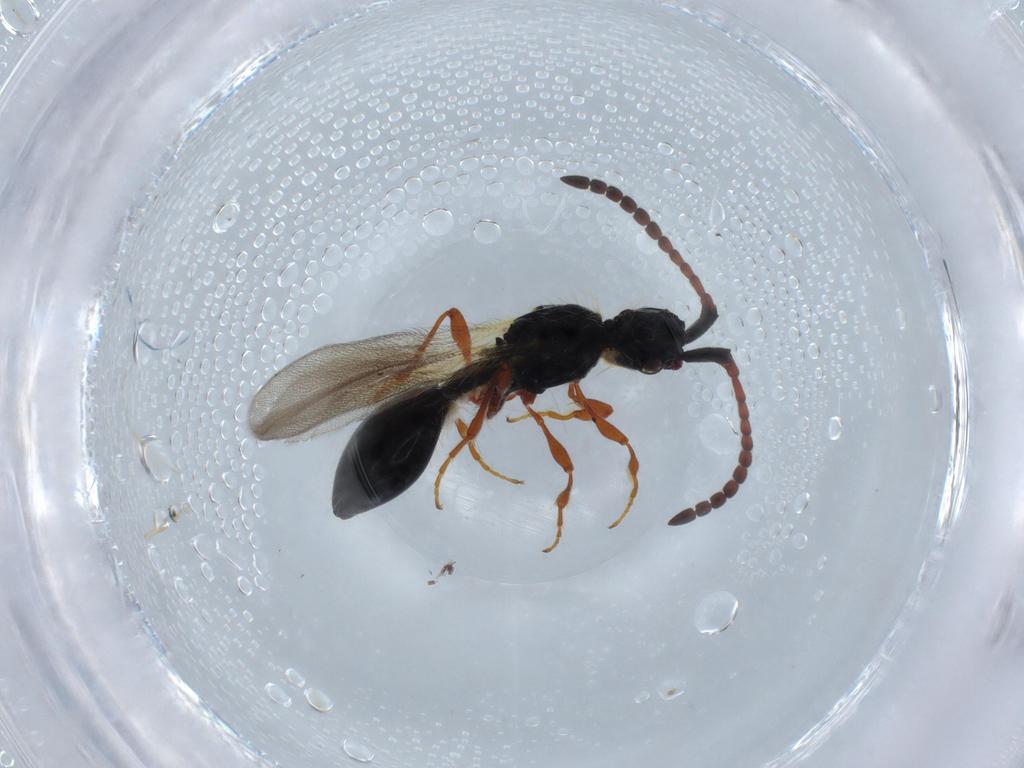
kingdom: Animalia
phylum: Arthropoda
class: Insecta
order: Hymenoptera
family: Diapriidae
